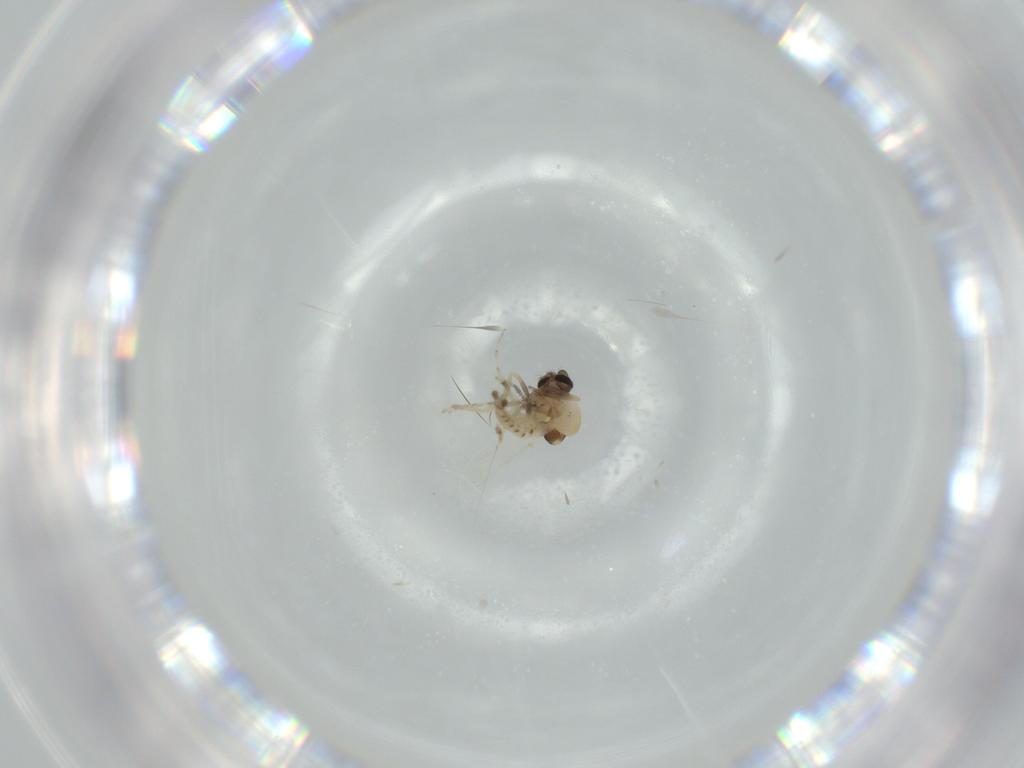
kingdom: Animalia
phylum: Arthropoda
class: Insecta
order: Diptera
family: Ceratopogonidae
